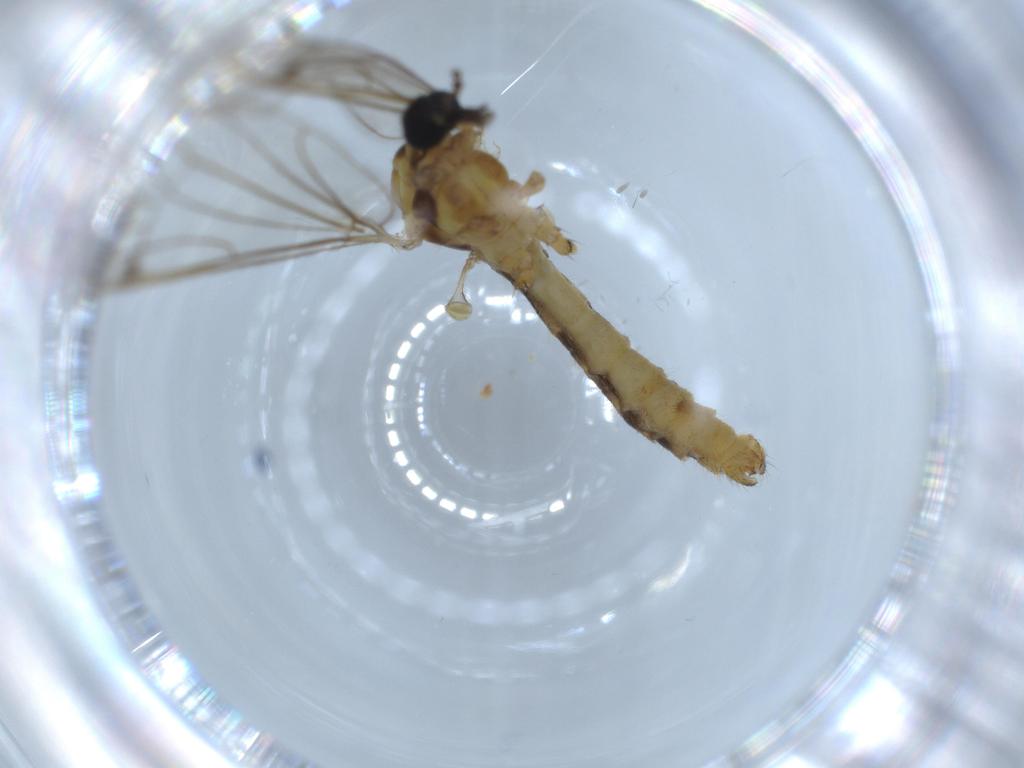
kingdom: Animalia
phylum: Arthropoda
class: Insecta
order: Diptera
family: Limoniidae
